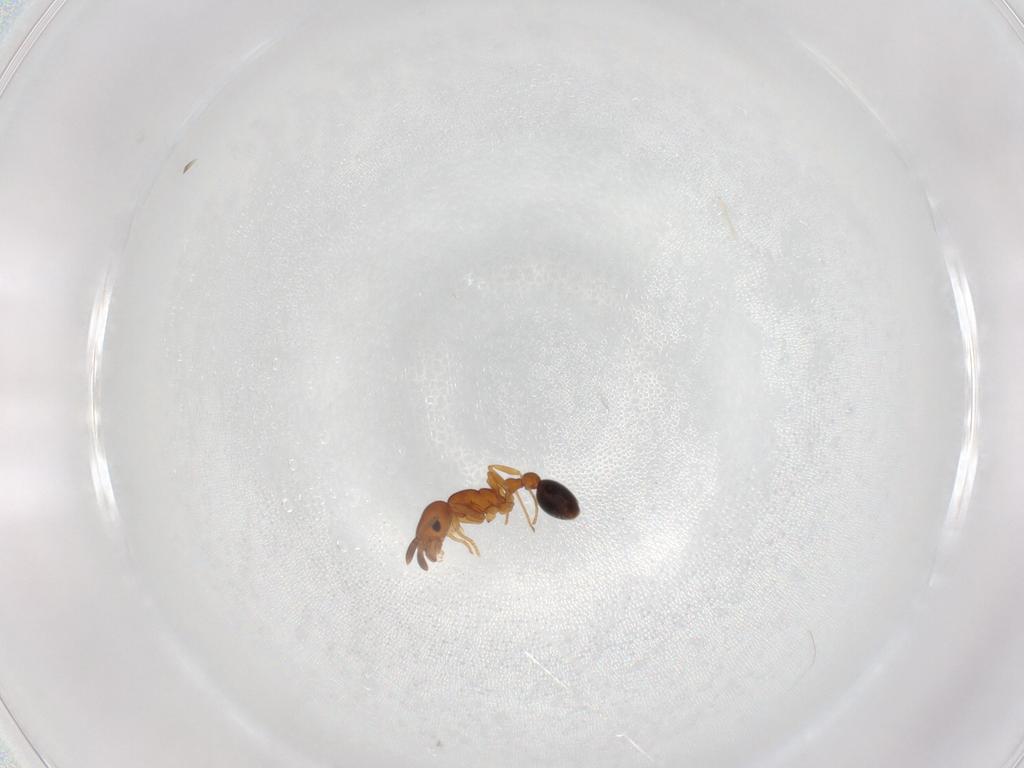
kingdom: Animalia
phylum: Arthropoda
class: Insecta
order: Hymenoptera
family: Formicidae
